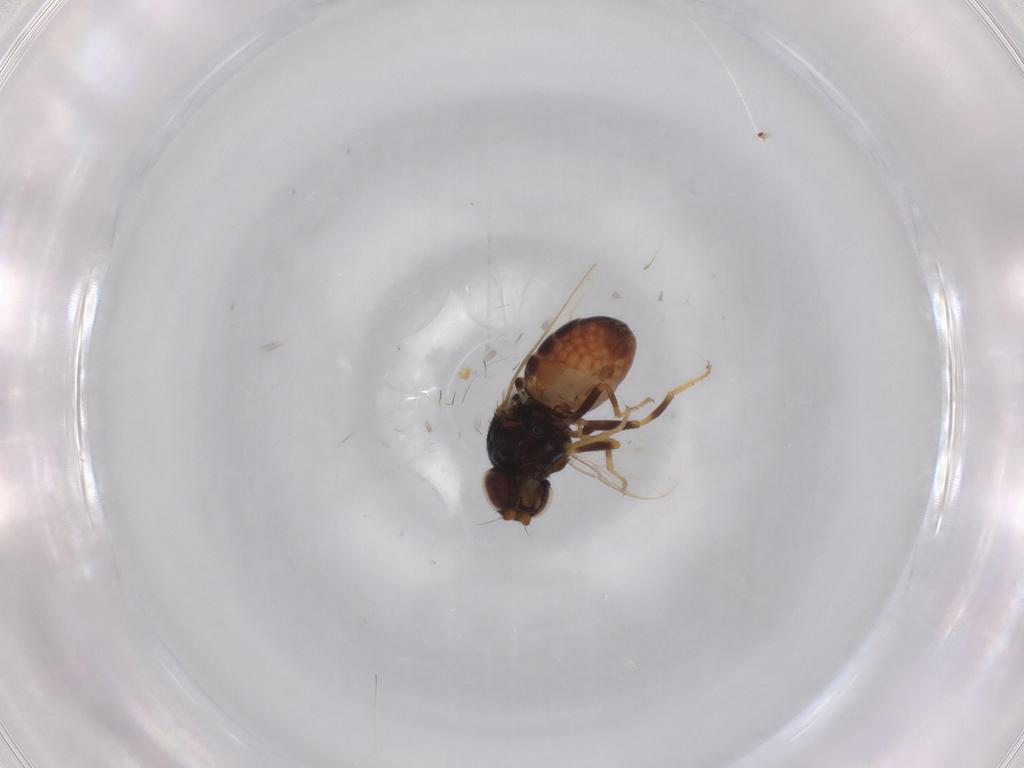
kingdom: Animalia
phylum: Arthropoda
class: Insecta
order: Diptera
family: Chloropidae
